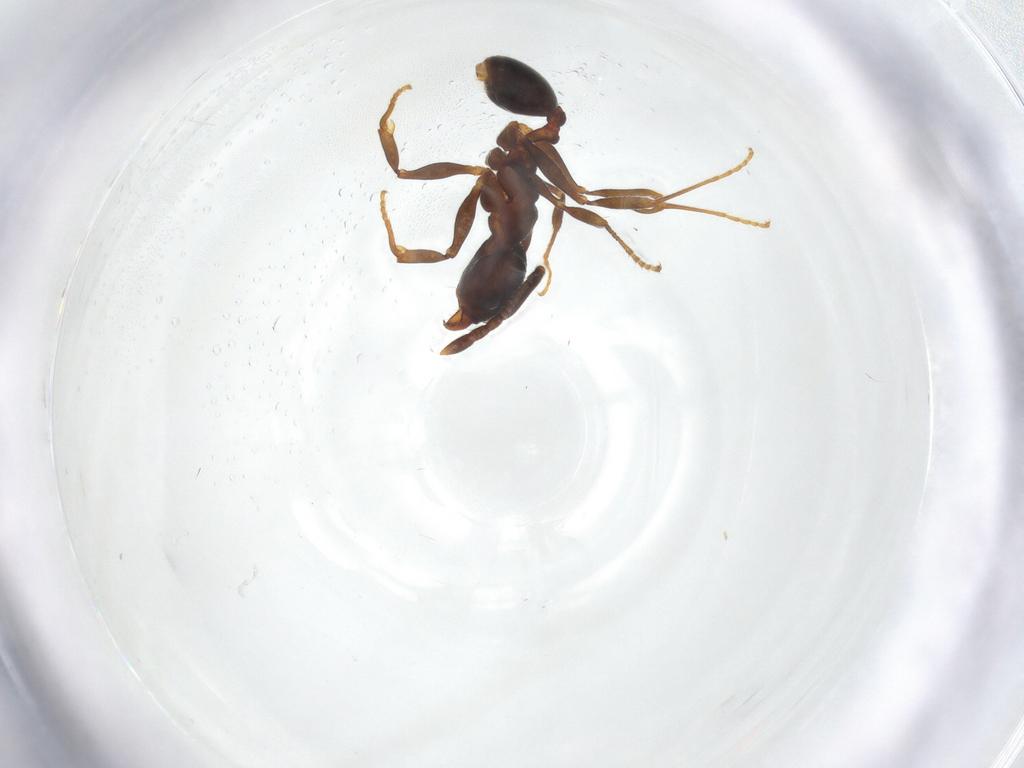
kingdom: Animalia
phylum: Arthropoda
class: Insecta
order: Hymenoptera
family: Formicidae
